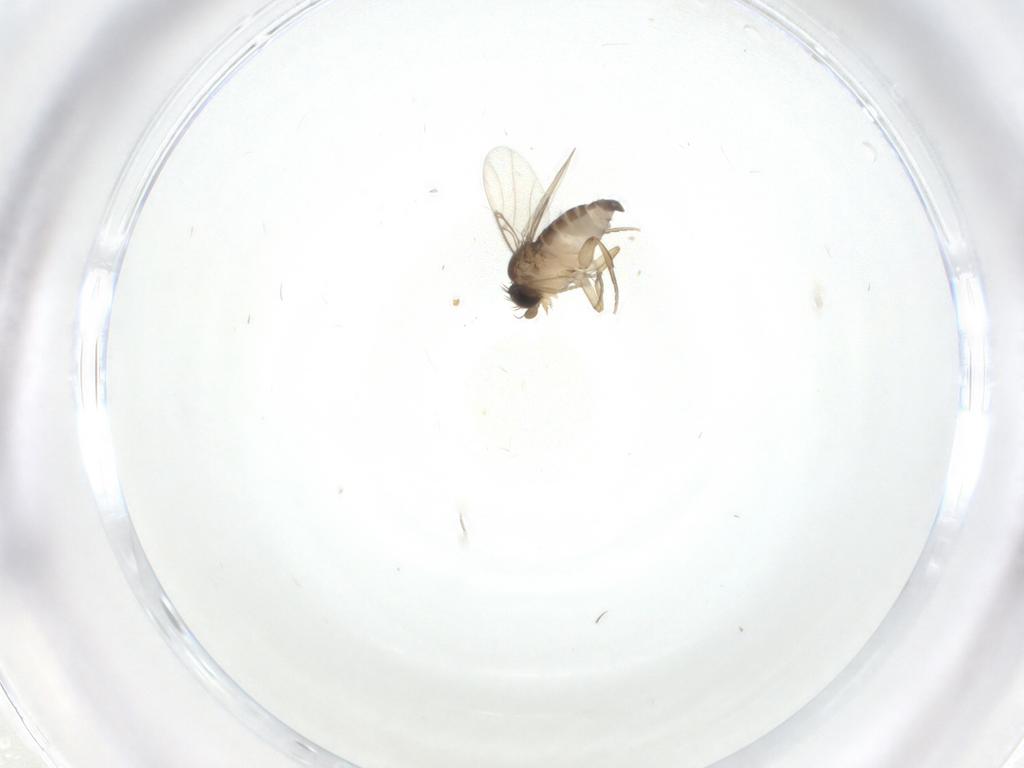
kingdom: Animalia
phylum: Arthropoda
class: Insecta
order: Diptera
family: Phoridae
